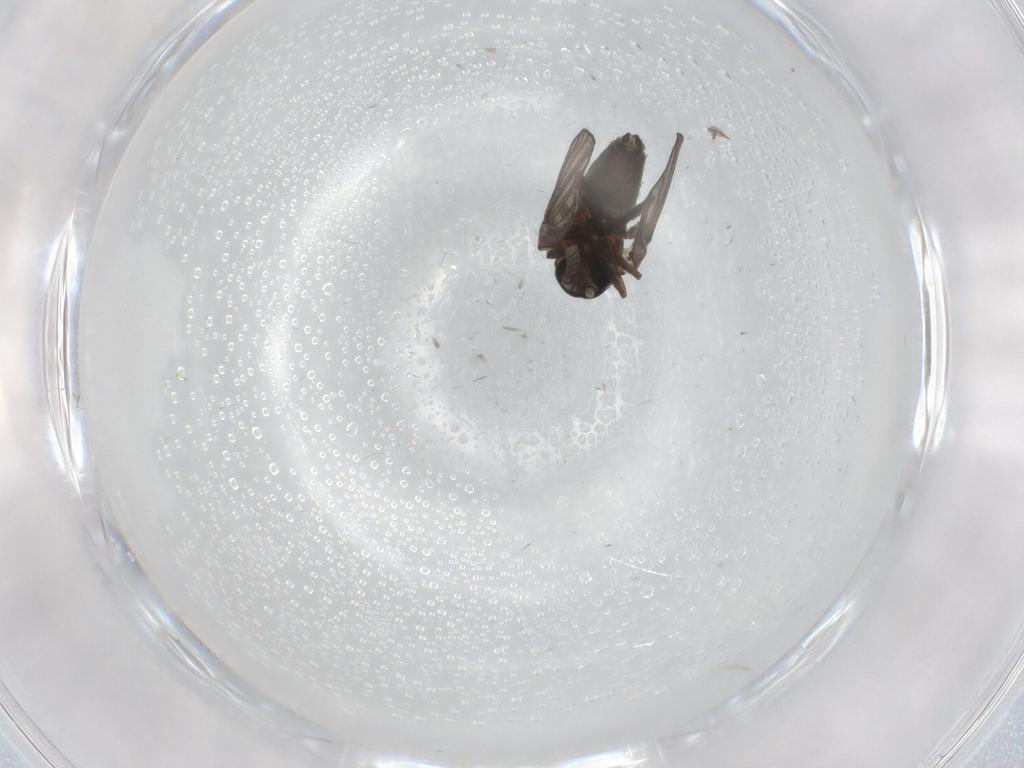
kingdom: Animalia
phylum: Arthropoda
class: Insecta
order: Diptera
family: Psychodidae
